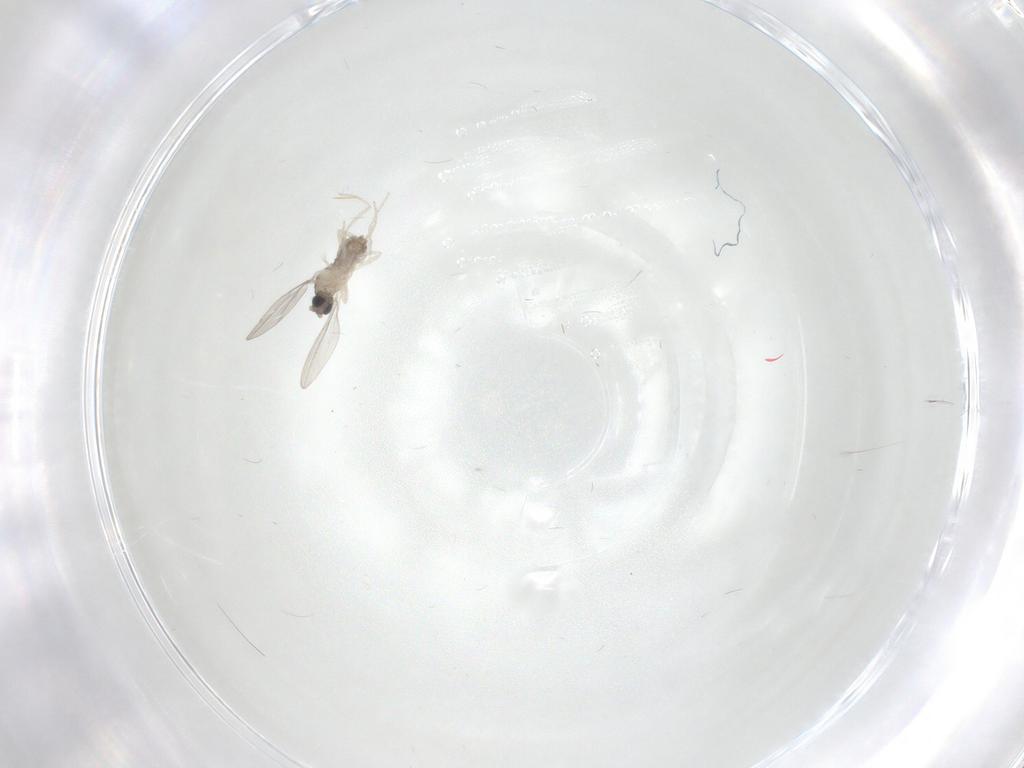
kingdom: Animalia
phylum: Arthropoda
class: Insecta
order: Diptera
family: Cecidomyiidae
